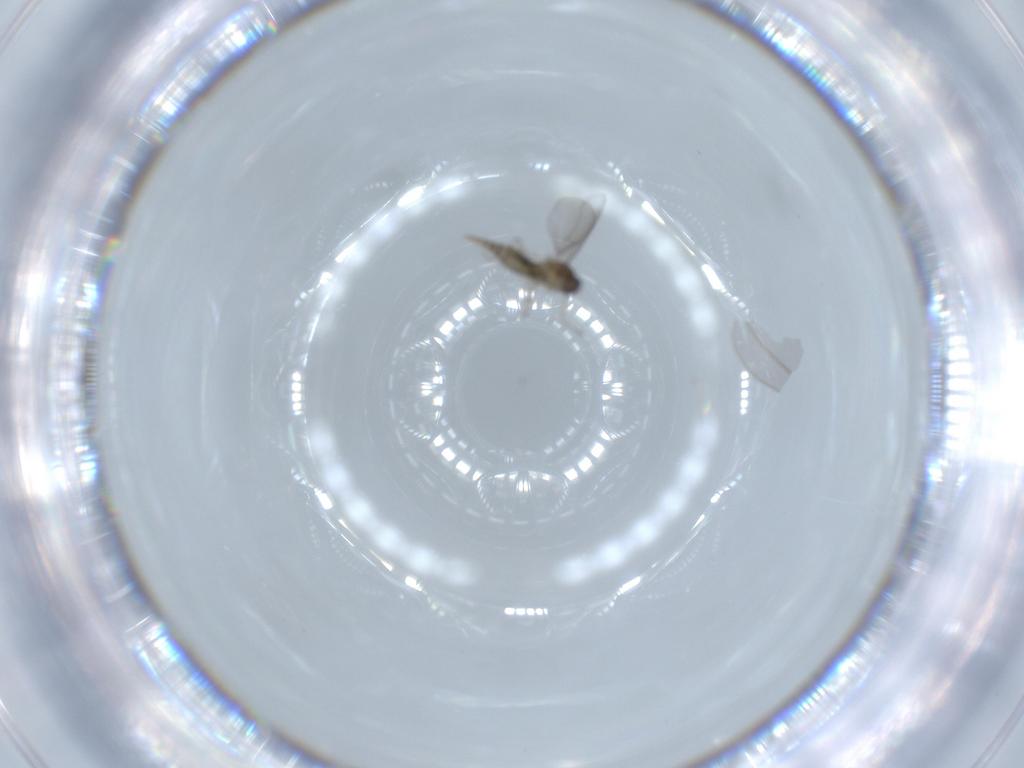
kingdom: Animalia
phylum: Arthropoda
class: Insecta
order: Diptera
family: Cecidomyiidae
